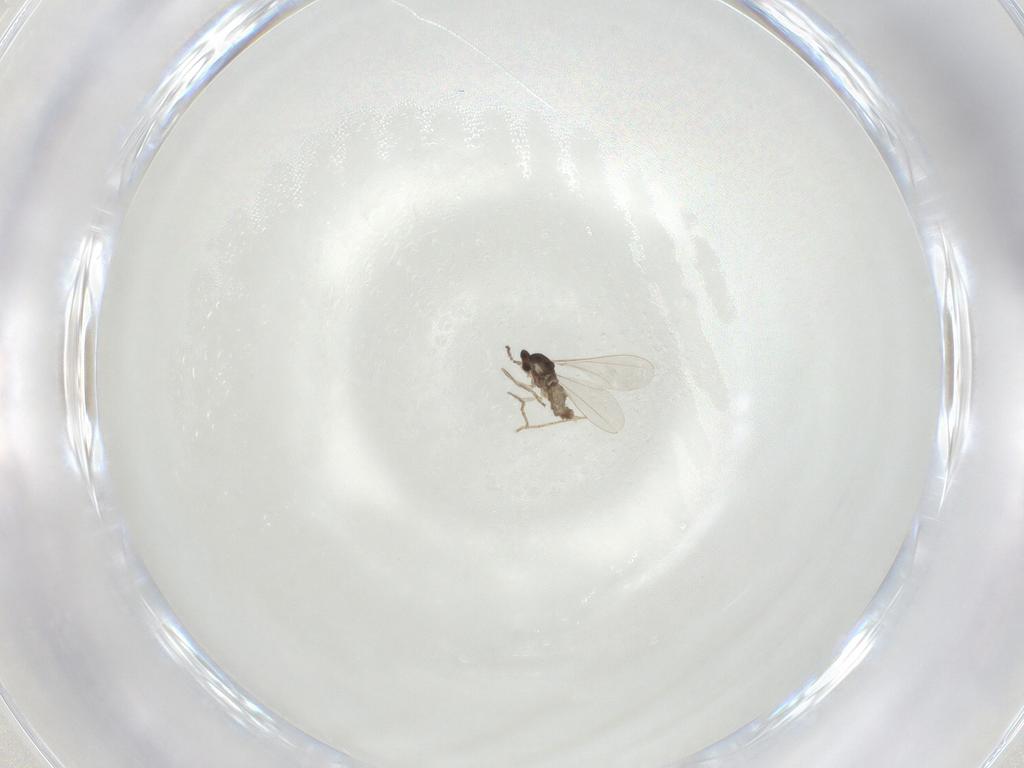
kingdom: Animalia
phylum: Arthropoda
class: Insecta
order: Diptera
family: Cecidomyiidae
